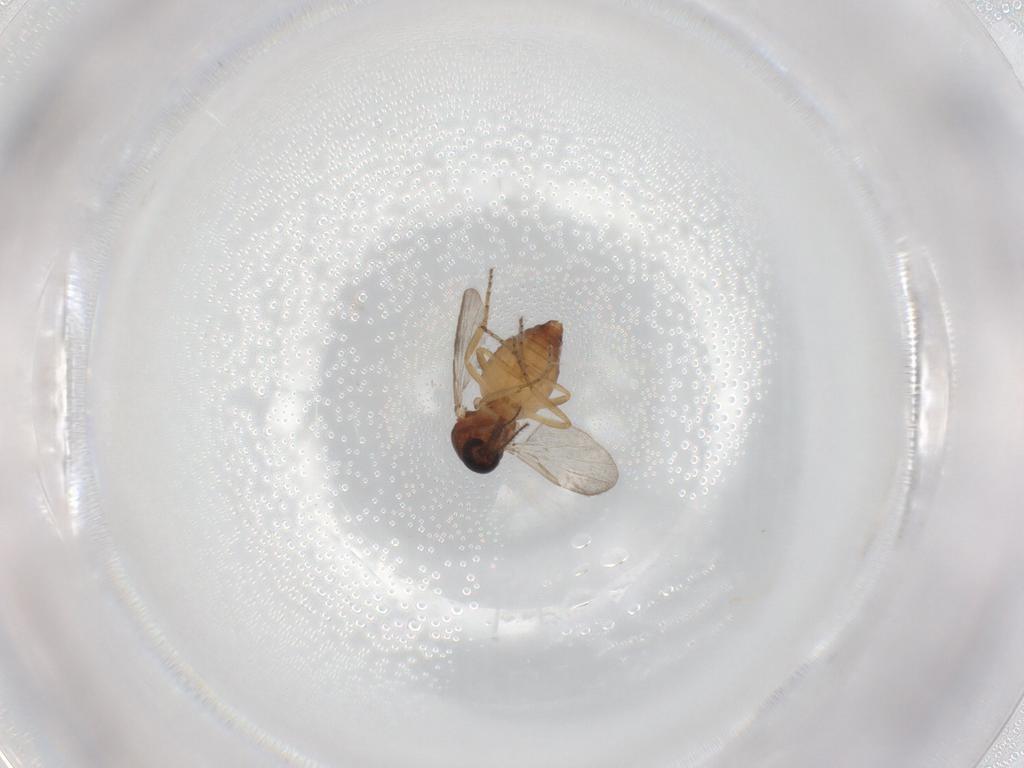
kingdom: Animalia
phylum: Arthropoda
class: Insecta
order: Diptera
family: Ceratopogonidae
